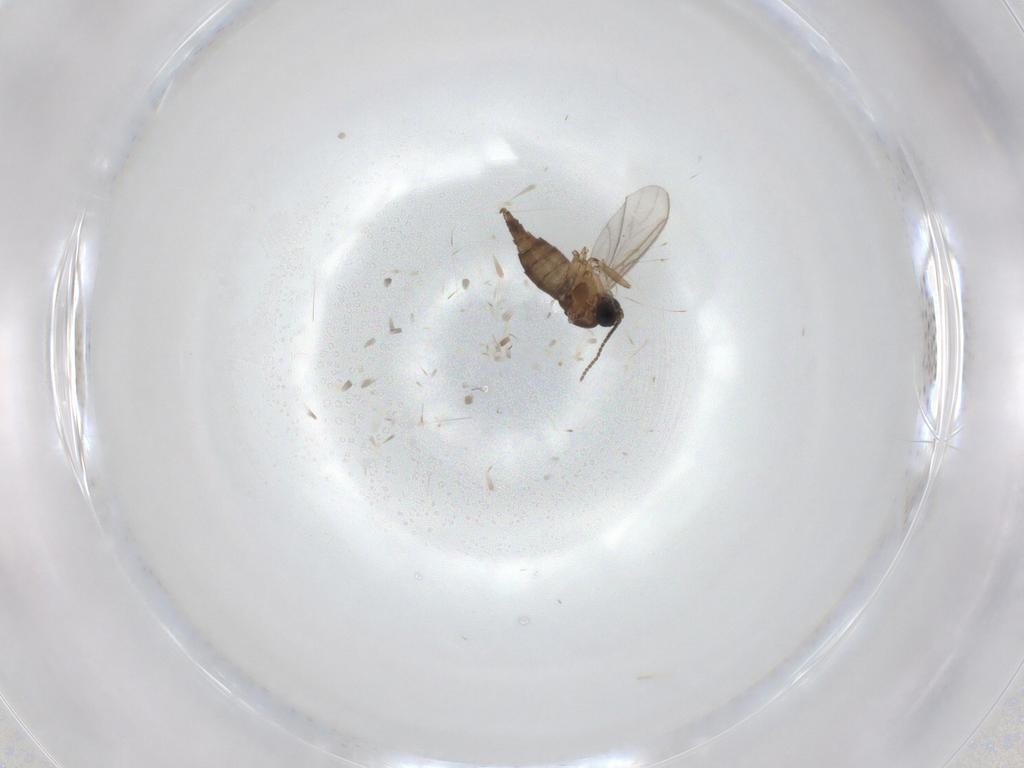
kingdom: Animalia
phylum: Arthropoda
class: Insecta
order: Diptera
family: Cecidomyiidae
